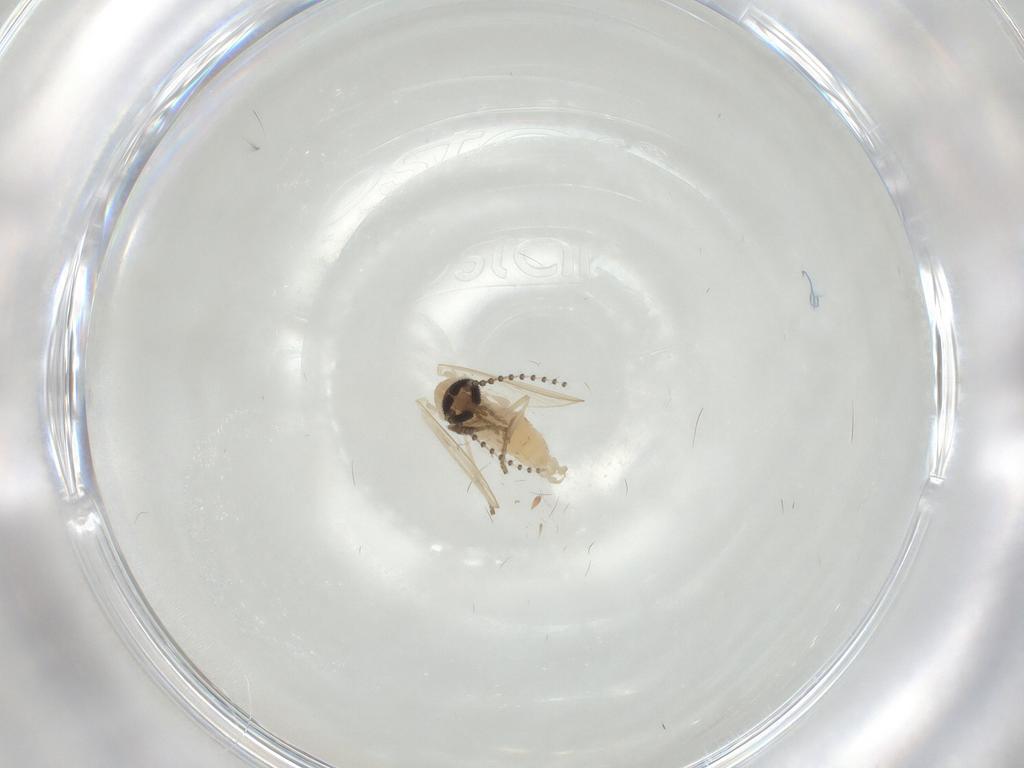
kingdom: Animalia
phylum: Arthropoda
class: Insecta
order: Diptera
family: Psychodidae
